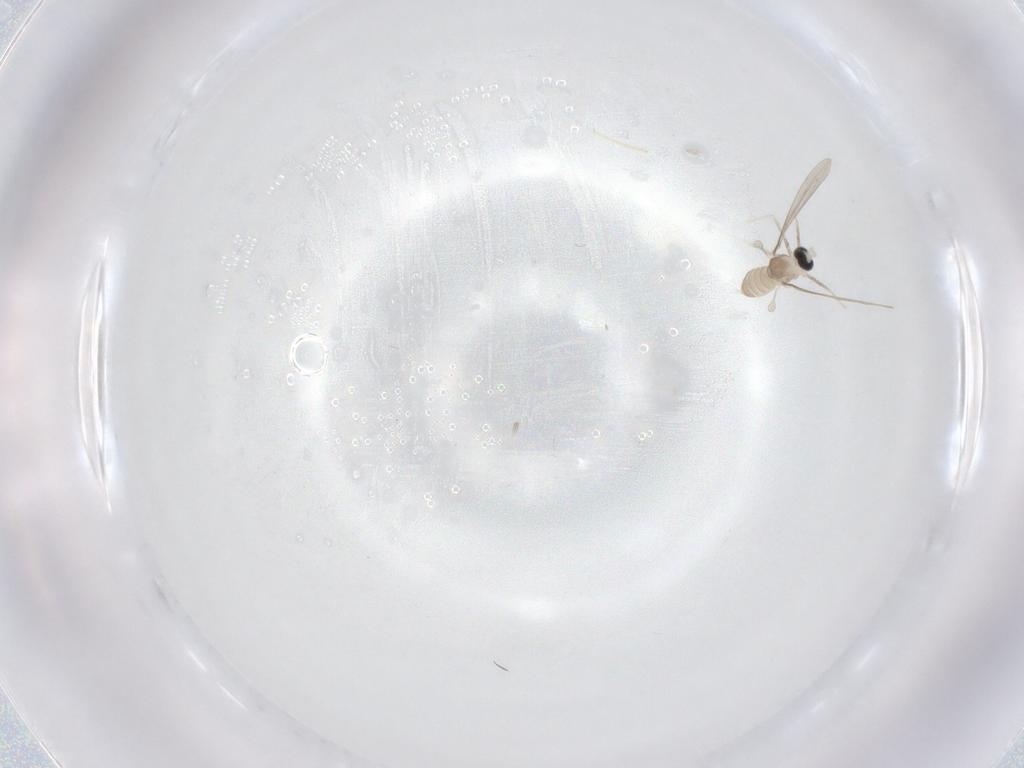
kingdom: Animalia
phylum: Arthropoda
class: Insecta
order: Diptera
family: Cecidomyiidae
